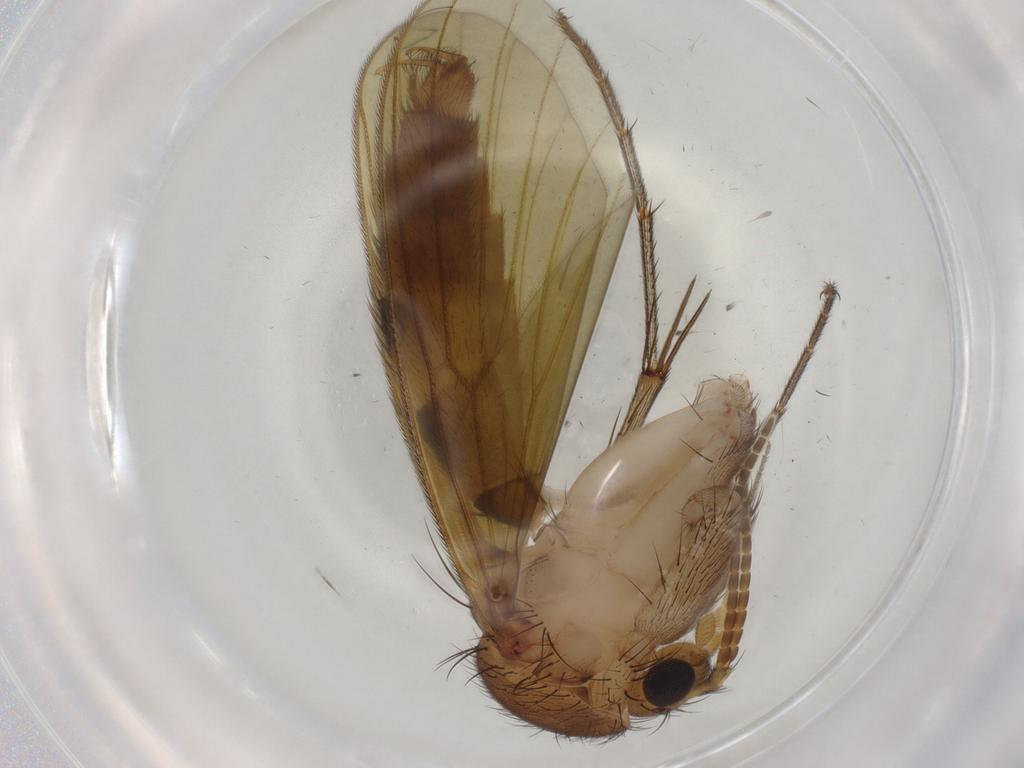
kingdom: Animalia
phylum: Arthropoda
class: Insecta
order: Diptera
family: Mycetophilidae
